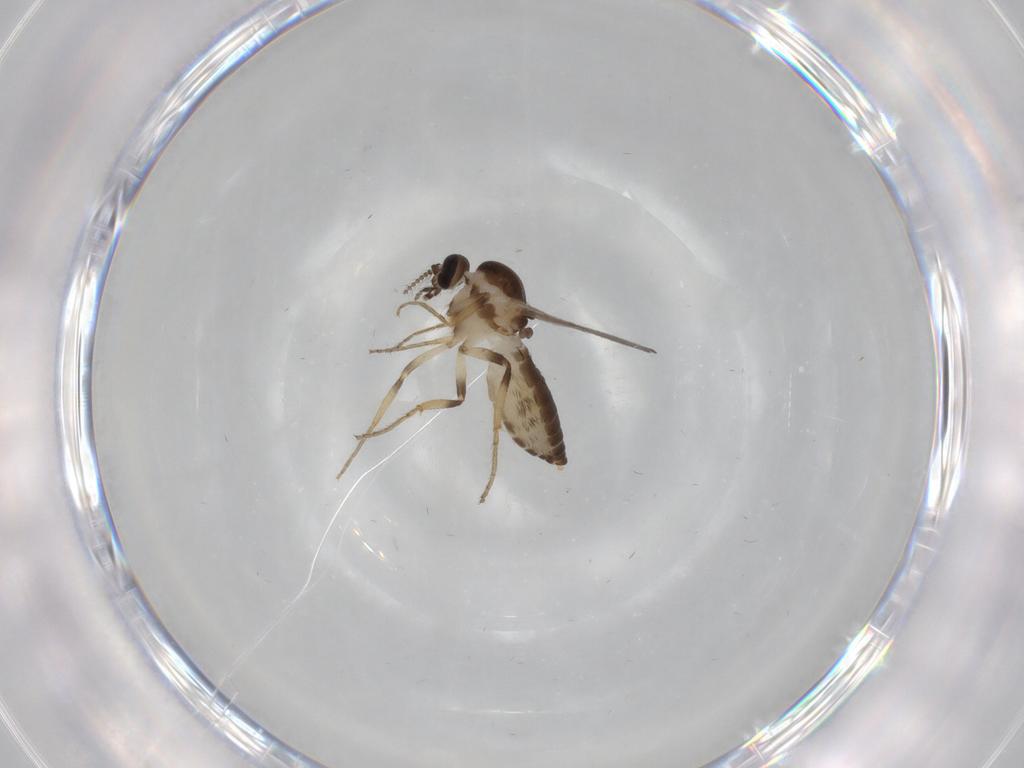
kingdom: Animalia
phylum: Arthropoda
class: Insecta
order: Diptera
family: Ceratopogonidae
